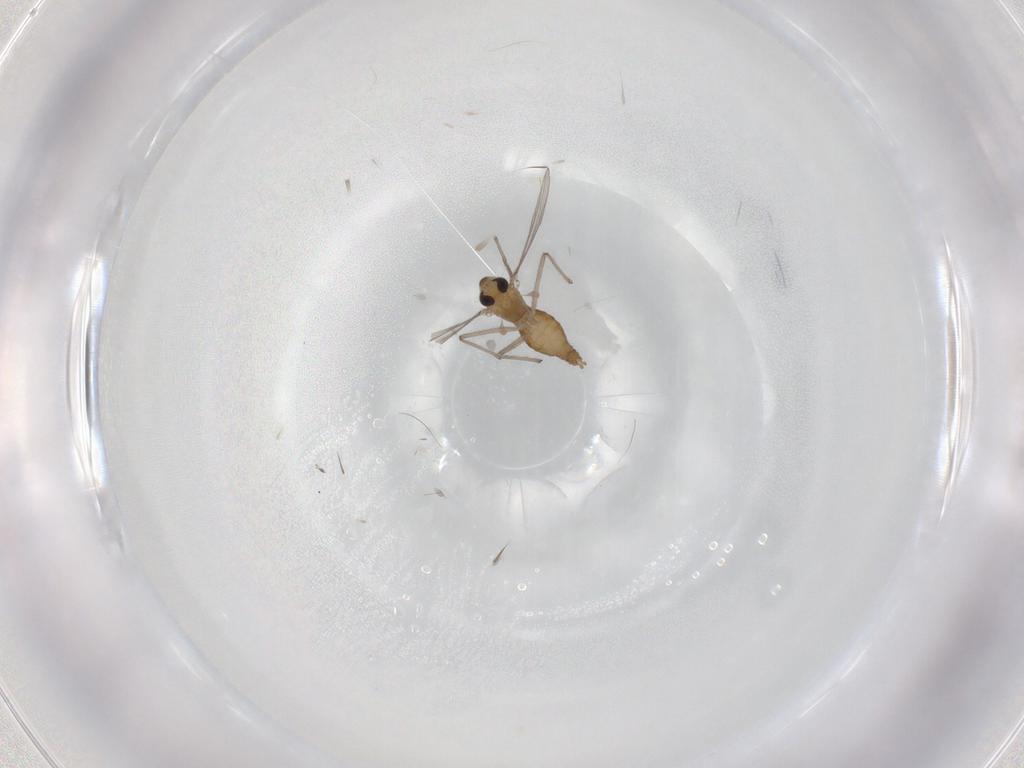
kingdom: Animalia
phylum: Arthropoda
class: Insecta
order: Diptera
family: Chironomidae
